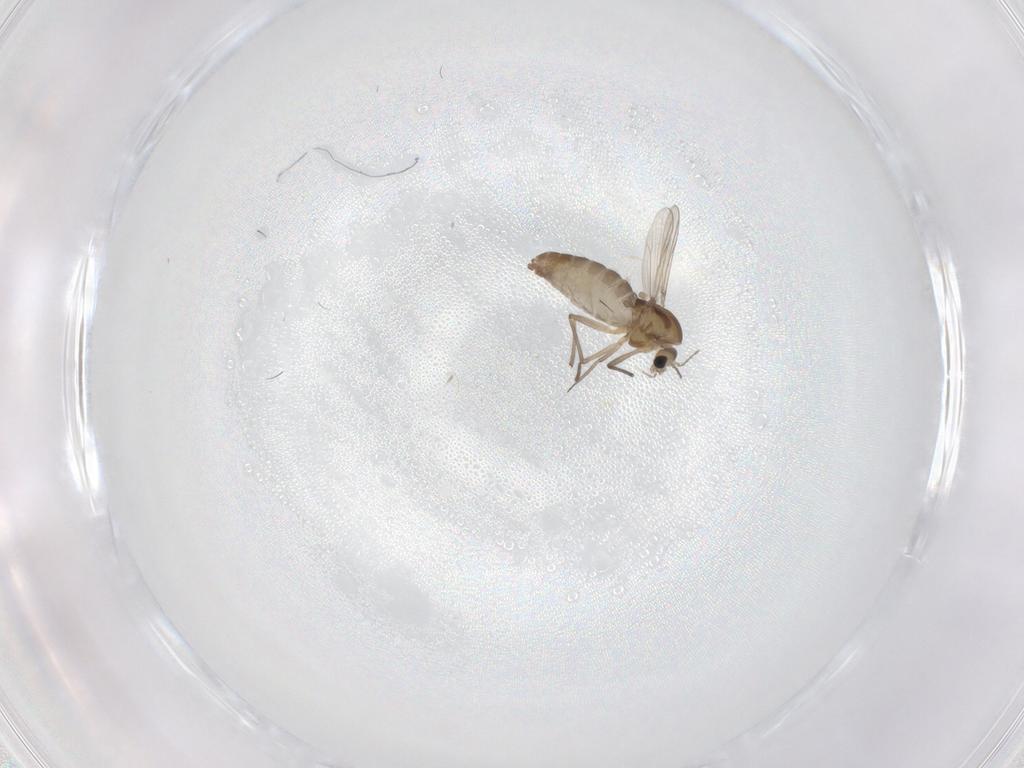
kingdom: Animalia
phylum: Arthropoda
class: Insecta
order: Diptera
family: Chironomidae
